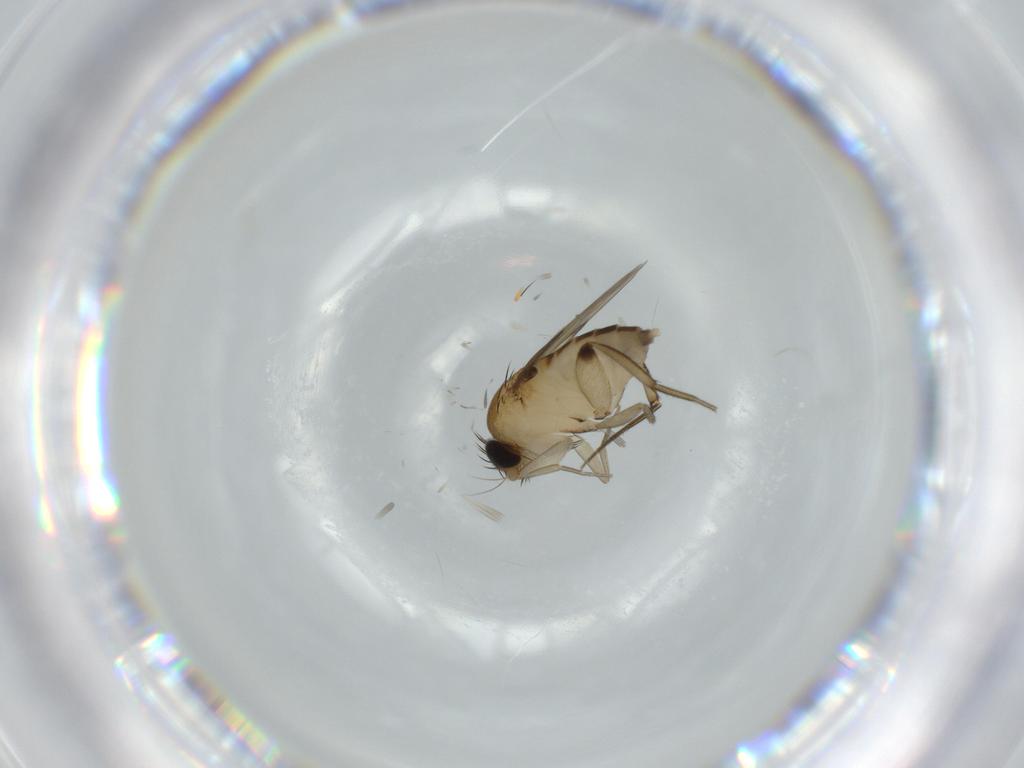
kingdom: Animalia
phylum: Arthropoda
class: Insecta
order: Diptera
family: Phoridae
